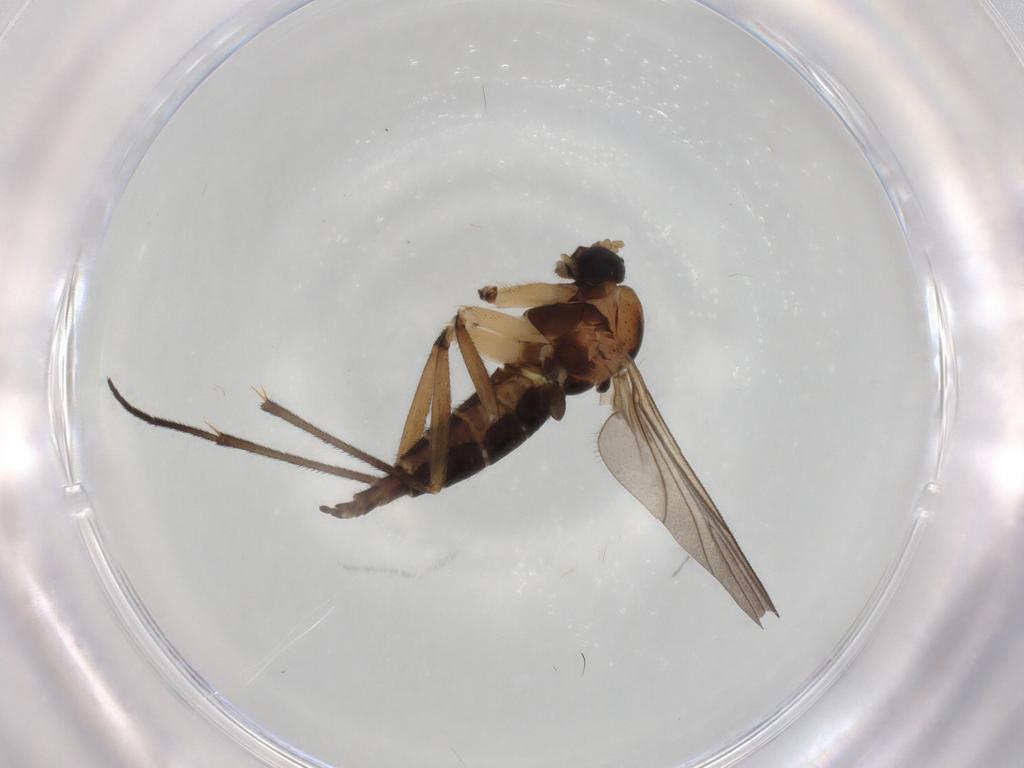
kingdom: Animalia
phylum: Arthropoda
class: Insecta
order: Diptera
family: Sciaridae
